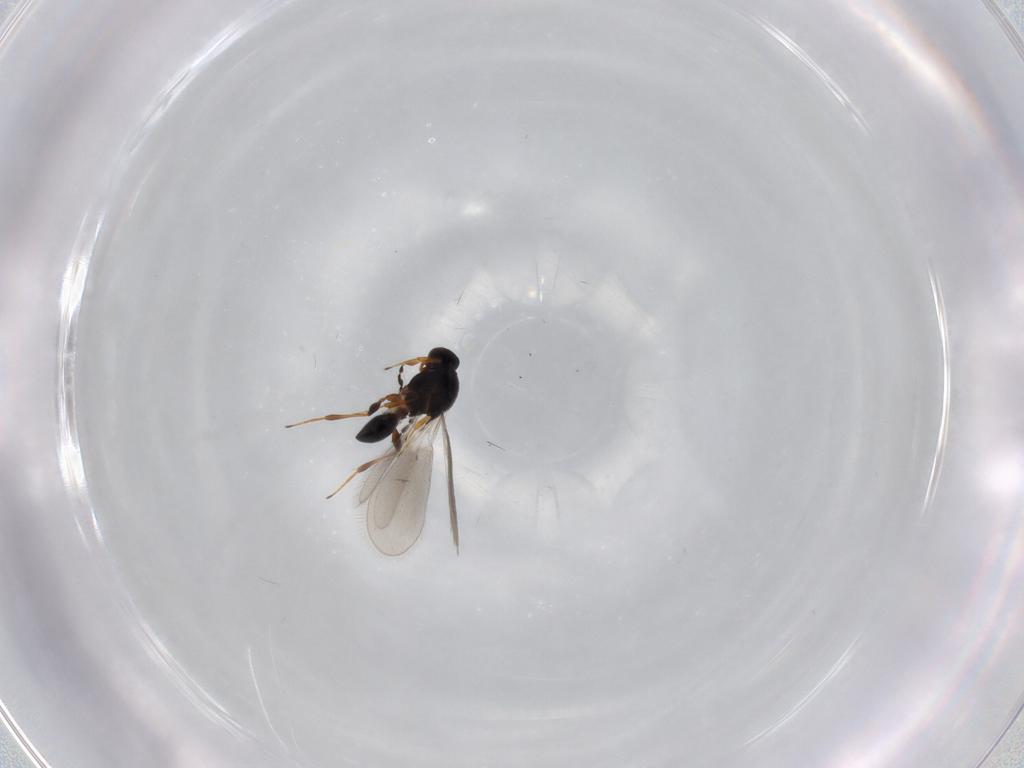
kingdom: Animalia
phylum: Arthropoda
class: Insecta
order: Hymenoptera
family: Platygastridae
